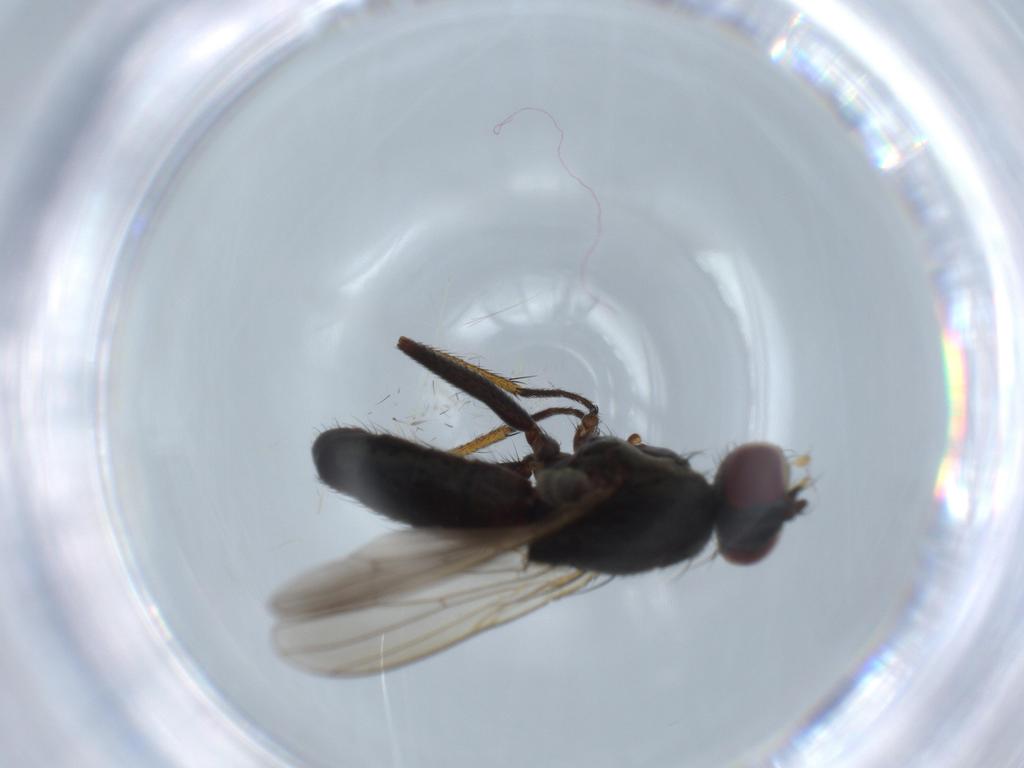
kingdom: Animalia
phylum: Arthropoda
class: Insecta
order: Diptera
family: Muscidae
